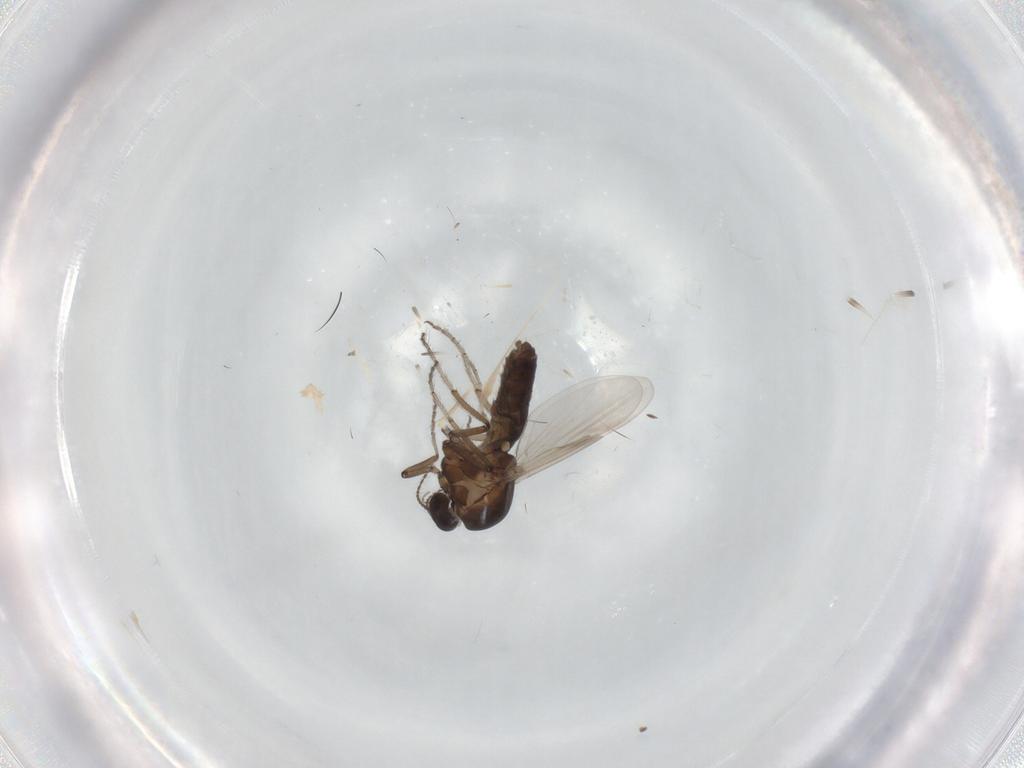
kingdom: Animalia
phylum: Arthropoda
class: Insecta
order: Diptera
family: Ceratopogonidae
